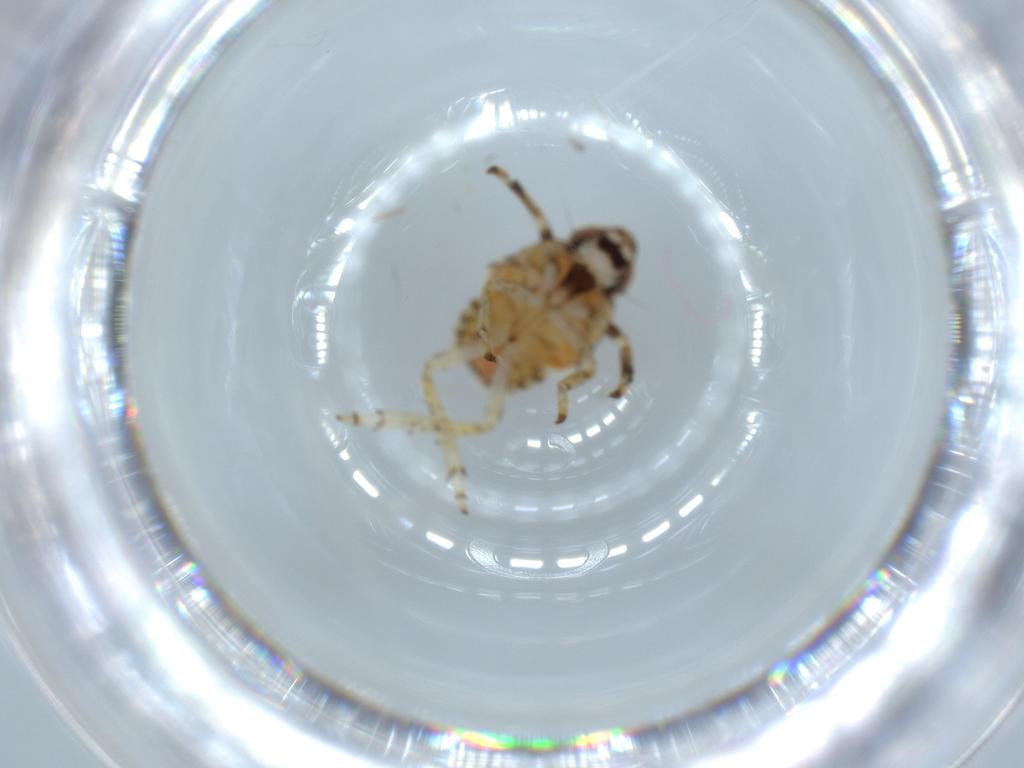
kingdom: Animalia
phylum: Arthropoda
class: Insecta
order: Hemiptera
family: Issidae
